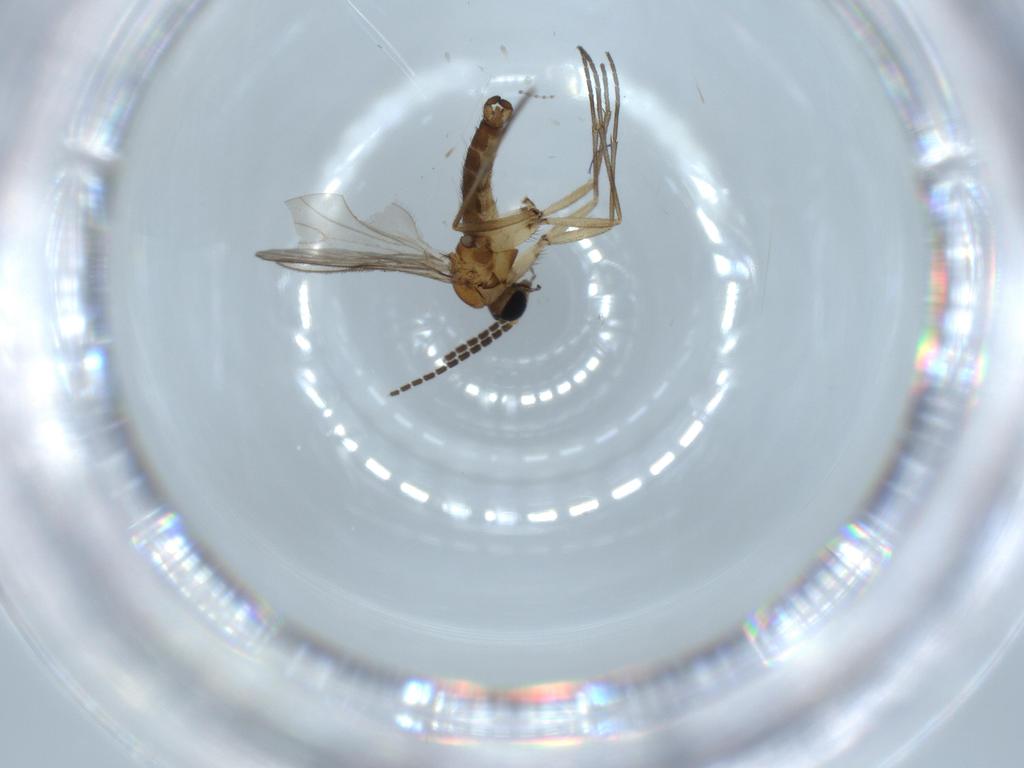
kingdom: Animalia
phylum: Arthropoda
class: Insecta
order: Diptera
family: Sciaridae
